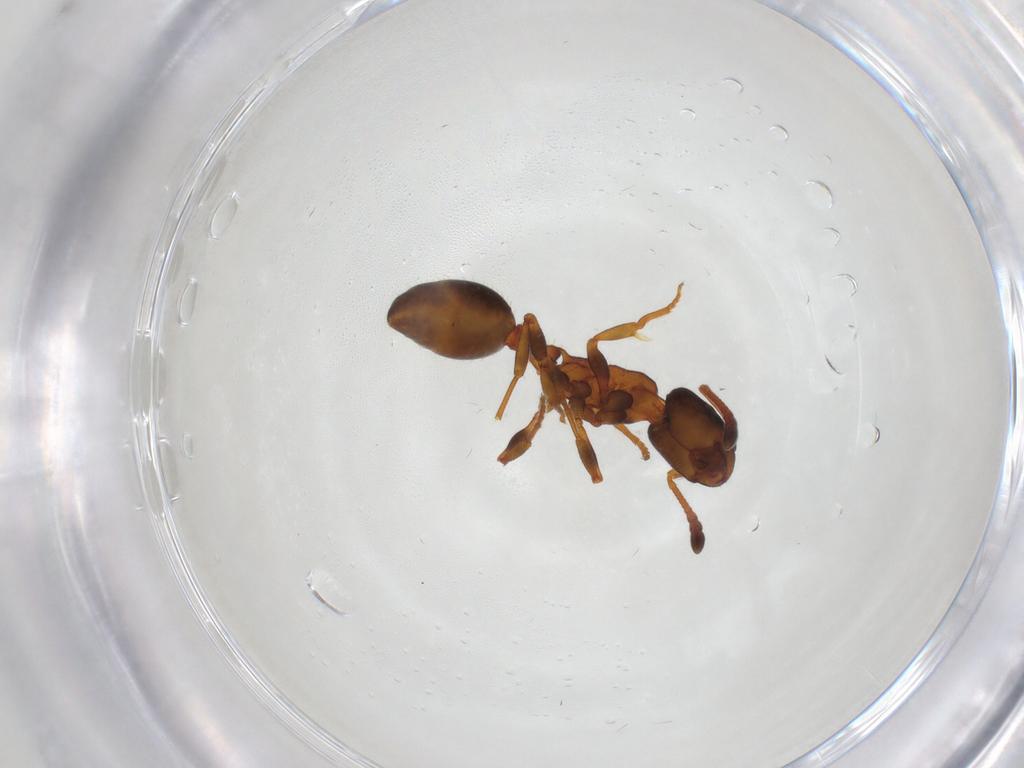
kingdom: Animalia
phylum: Arthropoda
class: Insecta
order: Hymenoptera
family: Formicidae
